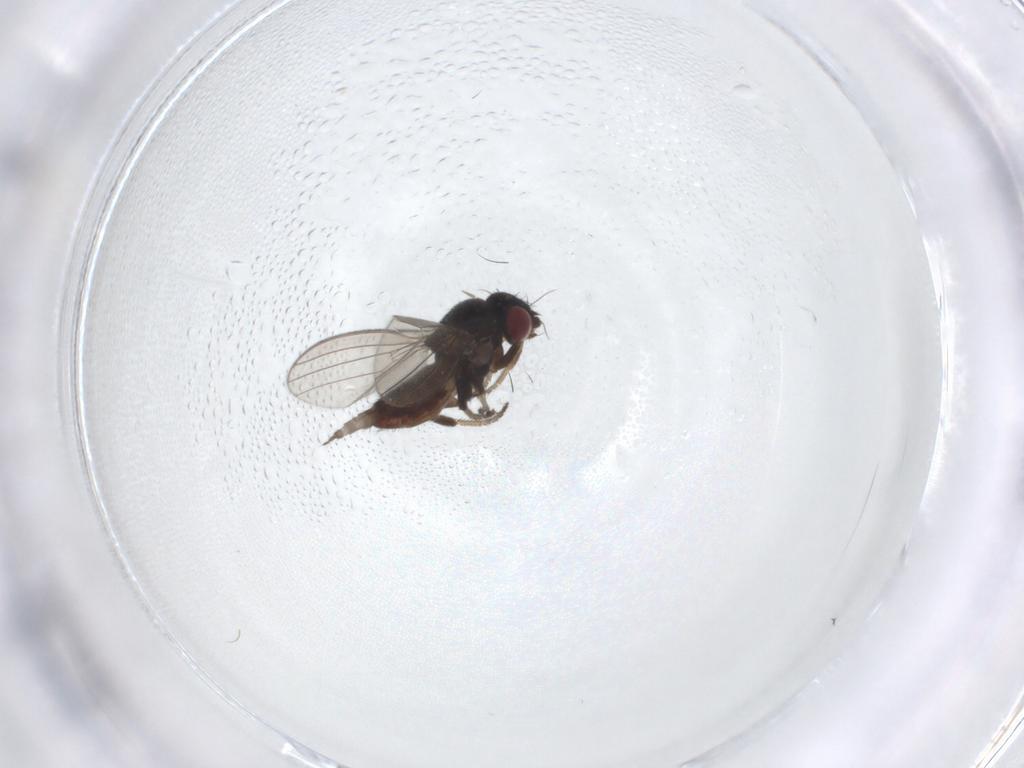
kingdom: Animalia
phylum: Arthropoda
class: Insecta
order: Diptera
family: Milichiidae
